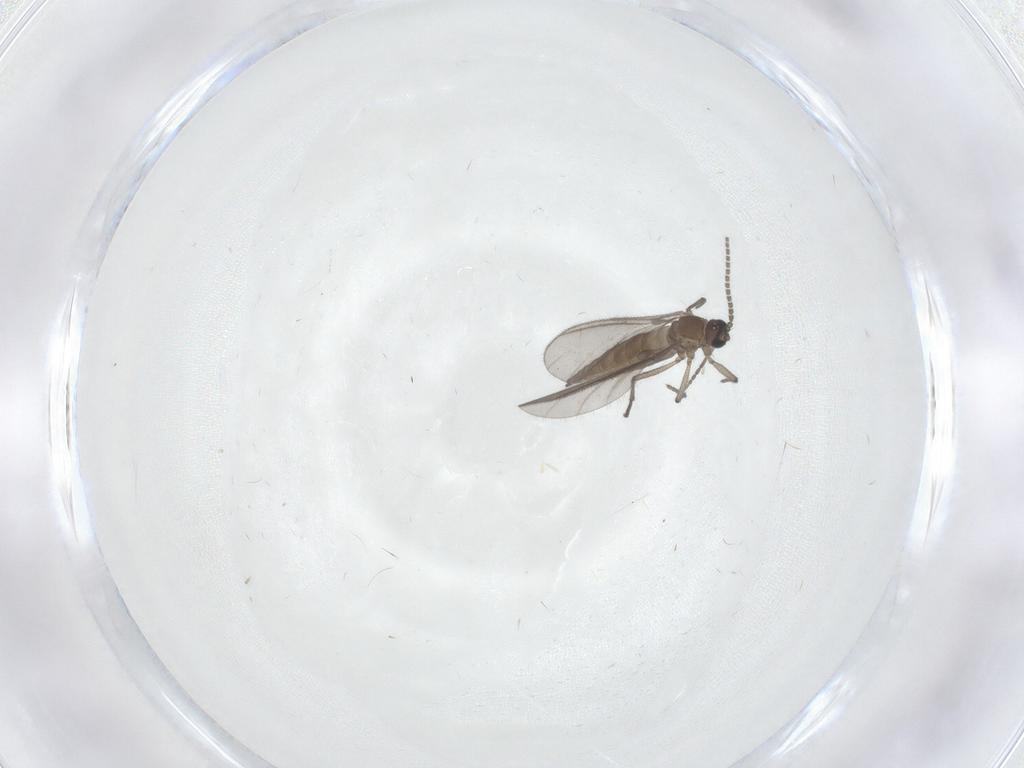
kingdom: Animalia
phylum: Arthropoda
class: Insecta
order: Diptera
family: Sciaridae
